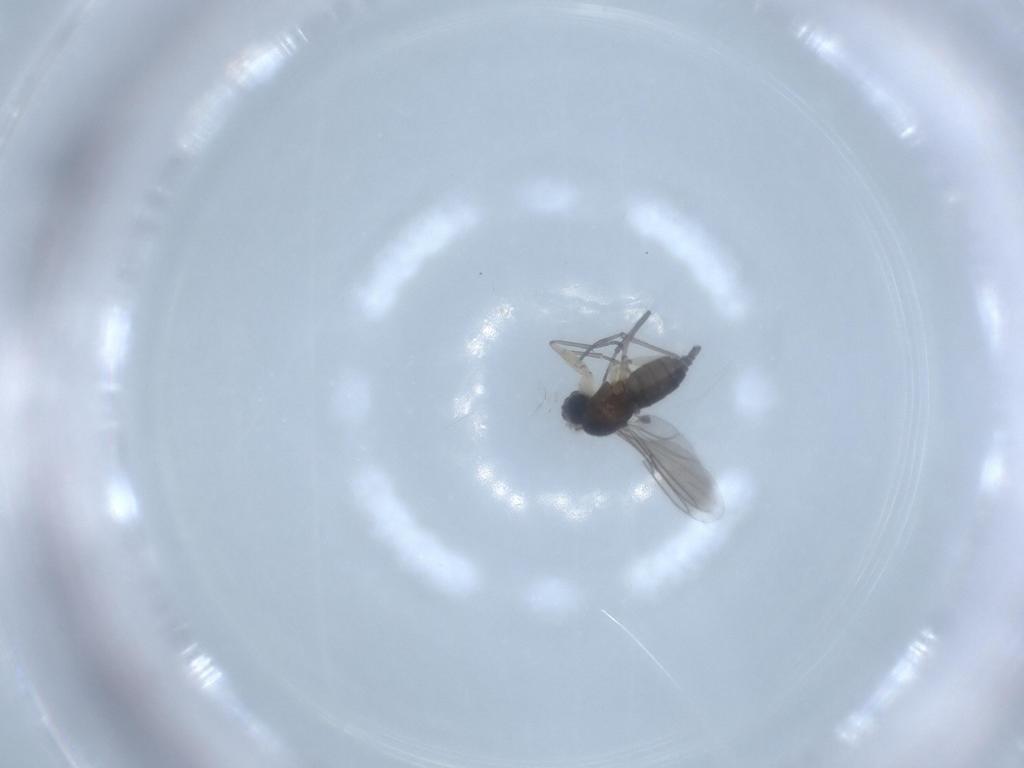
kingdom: Animalia
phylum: Arthropoda
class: Insecta
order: Diptera
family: Sciaridae
